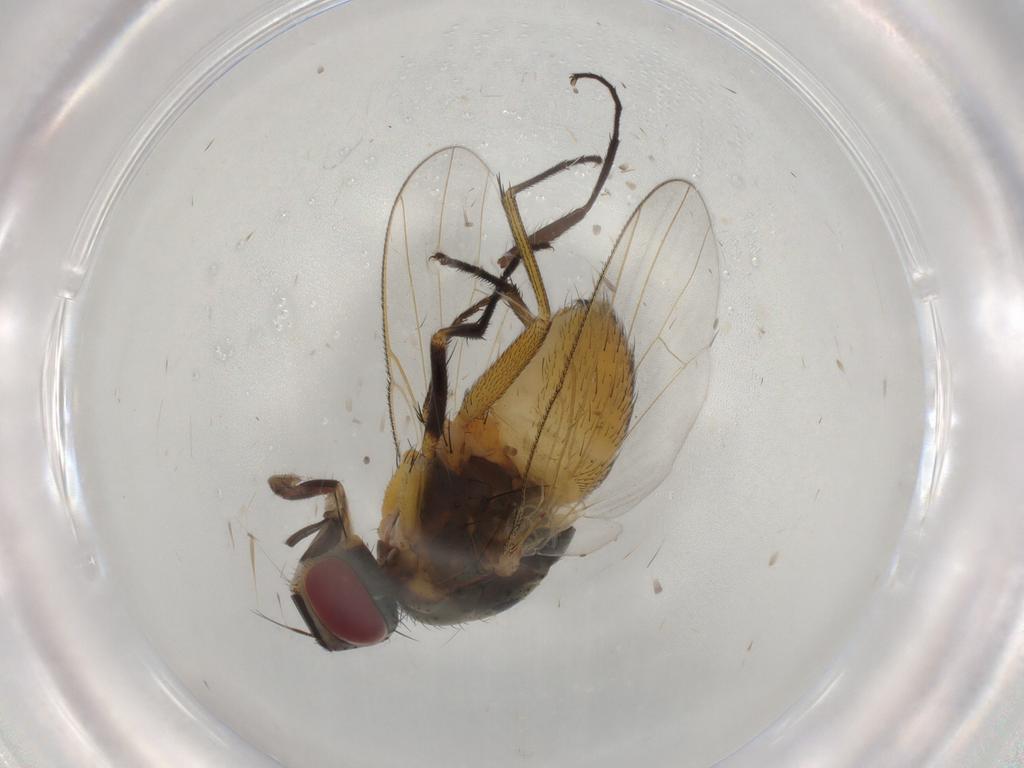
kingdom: Animalia
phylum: Arthropoda
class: Insecta
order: Diptera
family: Muscidae
